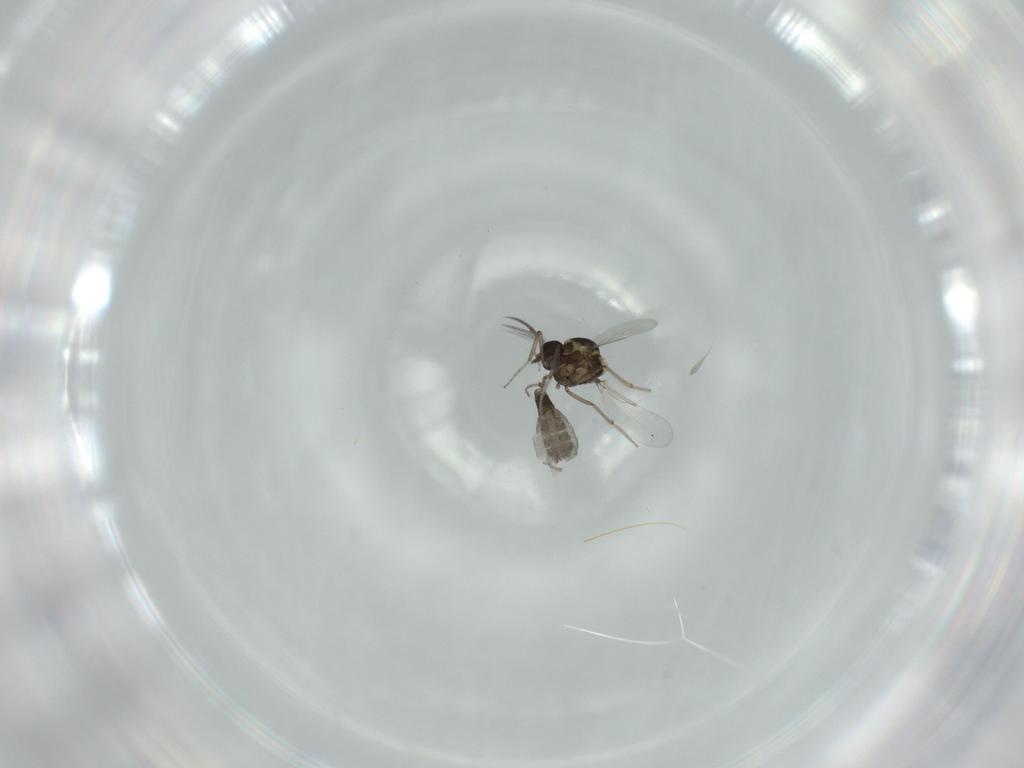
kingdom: Animalia
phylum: Arthropoda
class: Insecta
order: Diptera
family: Ceratopogonidae
